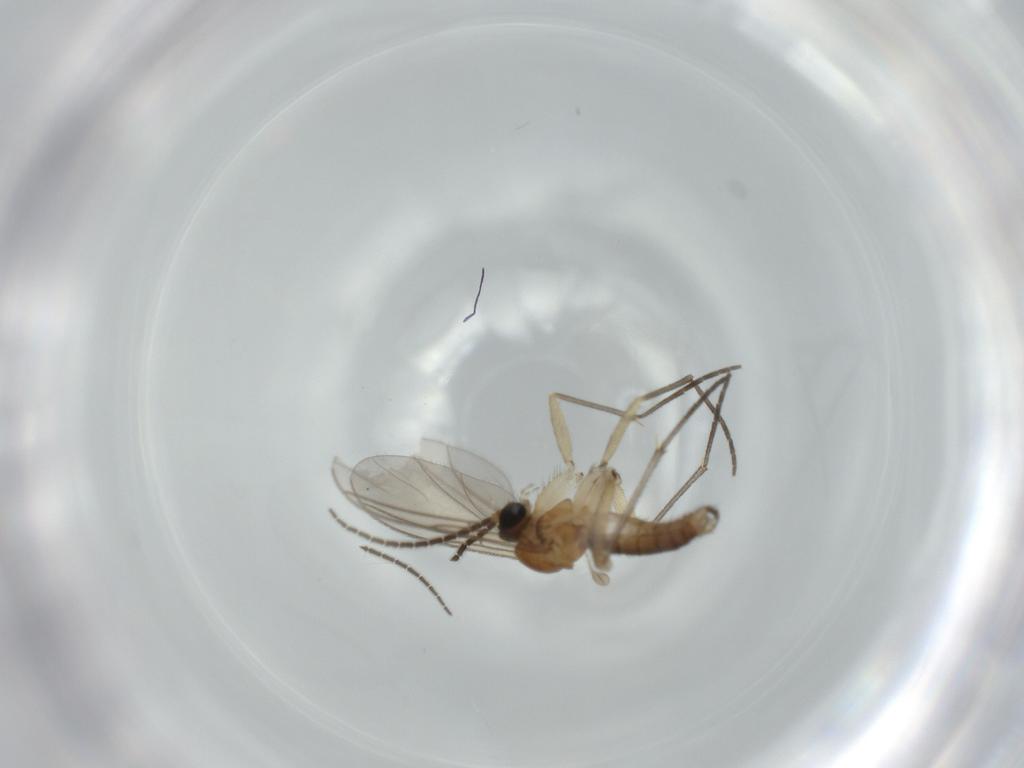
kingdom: Animalia
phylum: Arthropoda
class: Insecta
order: Diptera
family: Sciaridae
